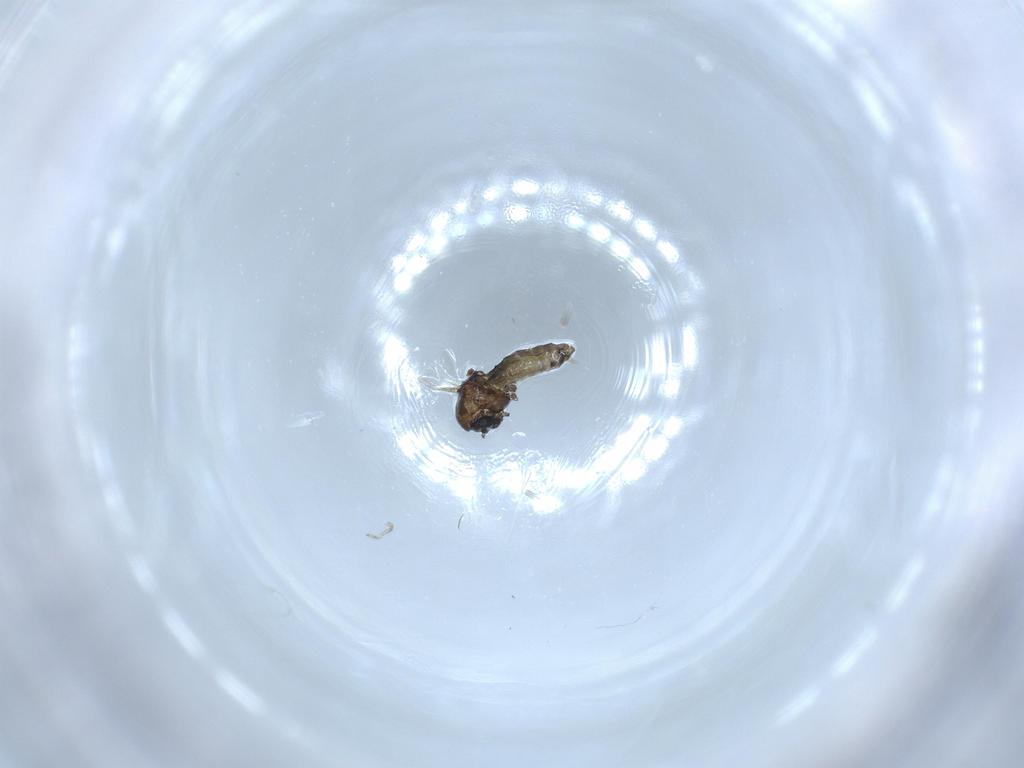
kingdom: Animalia
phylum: Arthropoda
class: Insecta
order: Diptera
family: Chironomidae
